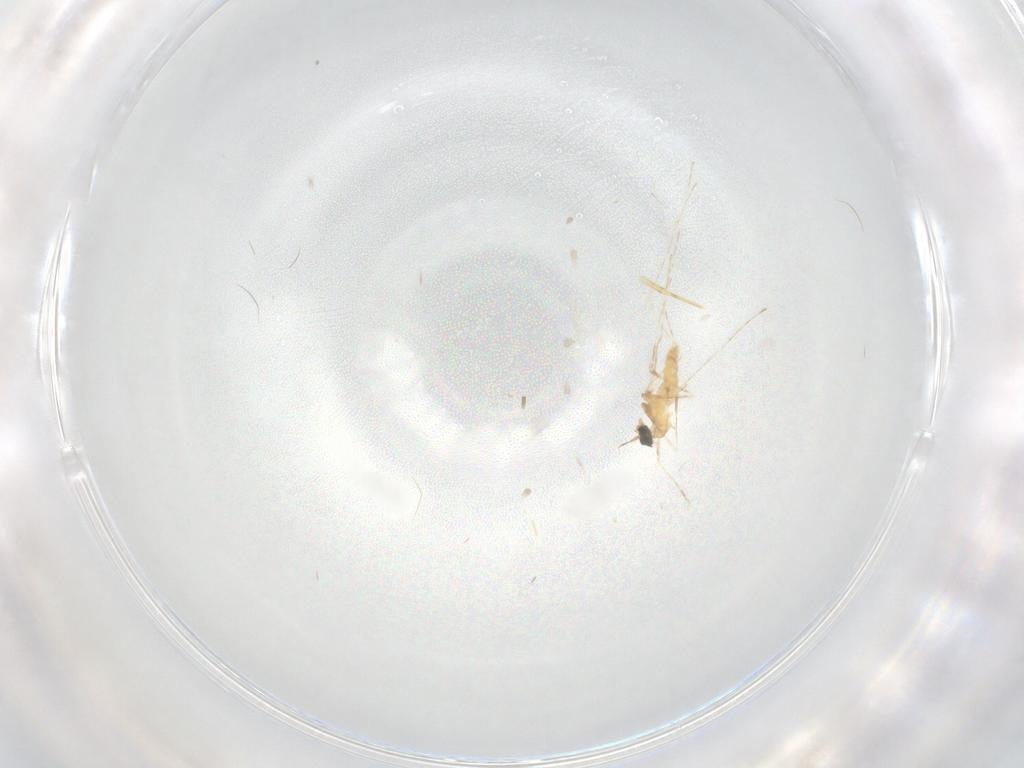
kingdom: Animalia
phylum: Arthropoda
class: Insecta
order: Diptera
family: Cecidomyiidae
